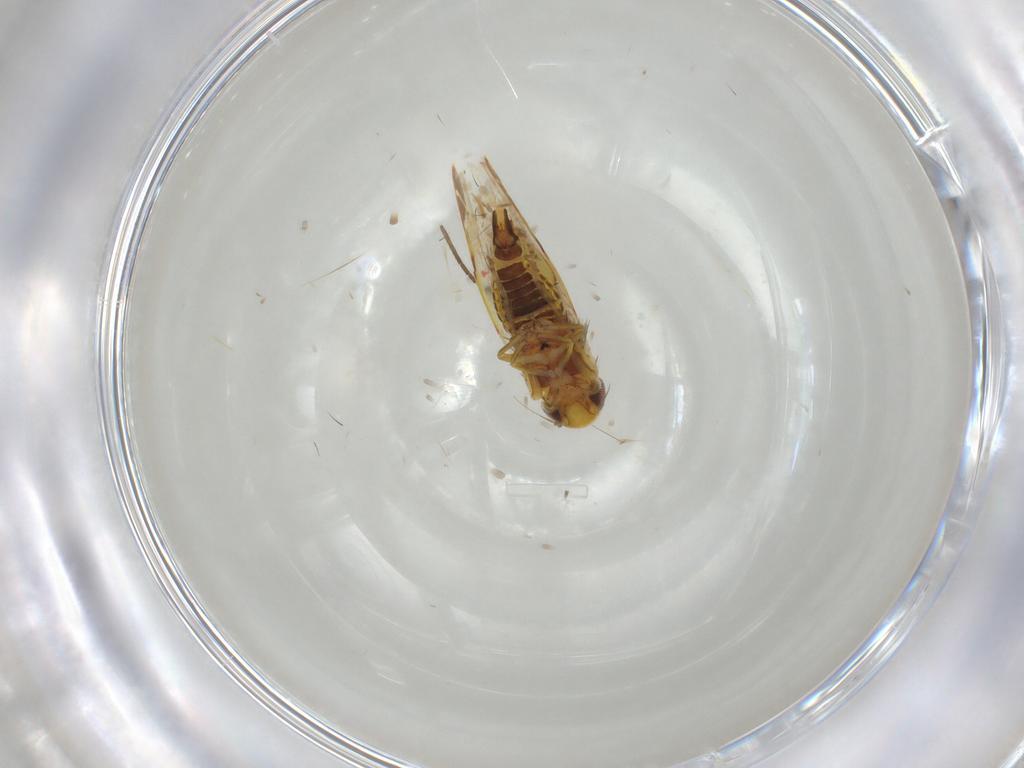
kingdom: Animalia
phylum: Arthropoda
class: Insecta
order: Hemiptera
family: Cicadellidae
